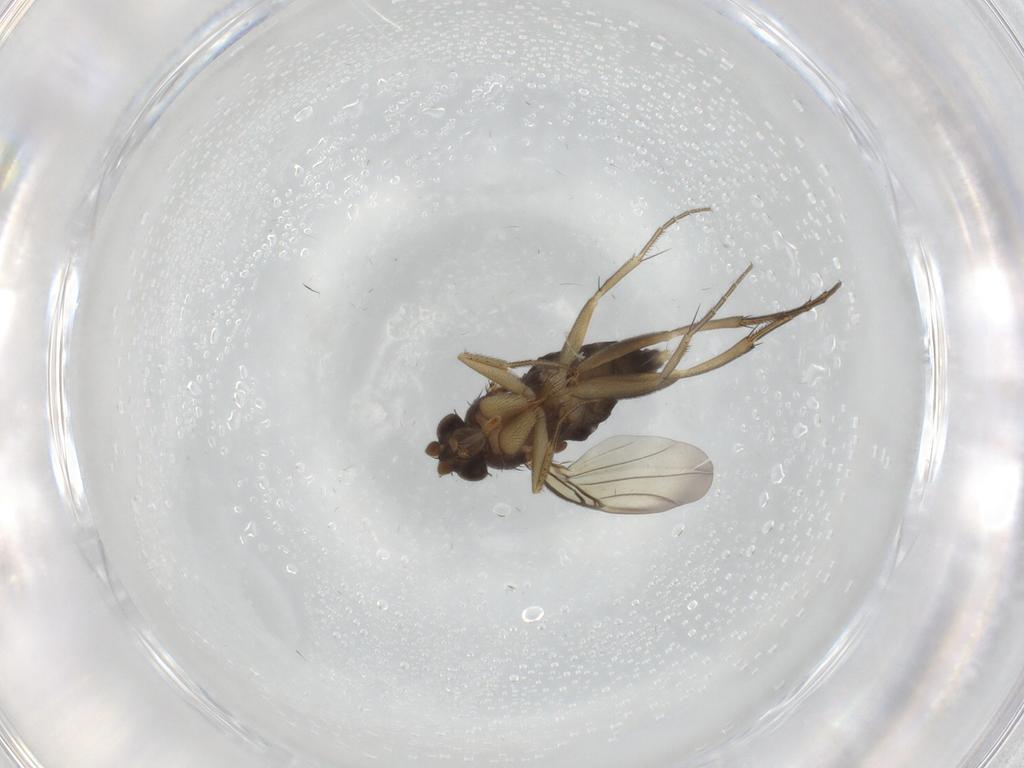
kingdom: Animalia
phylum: Arthropoda
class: Insecta
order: Diptera
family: Phoridae
